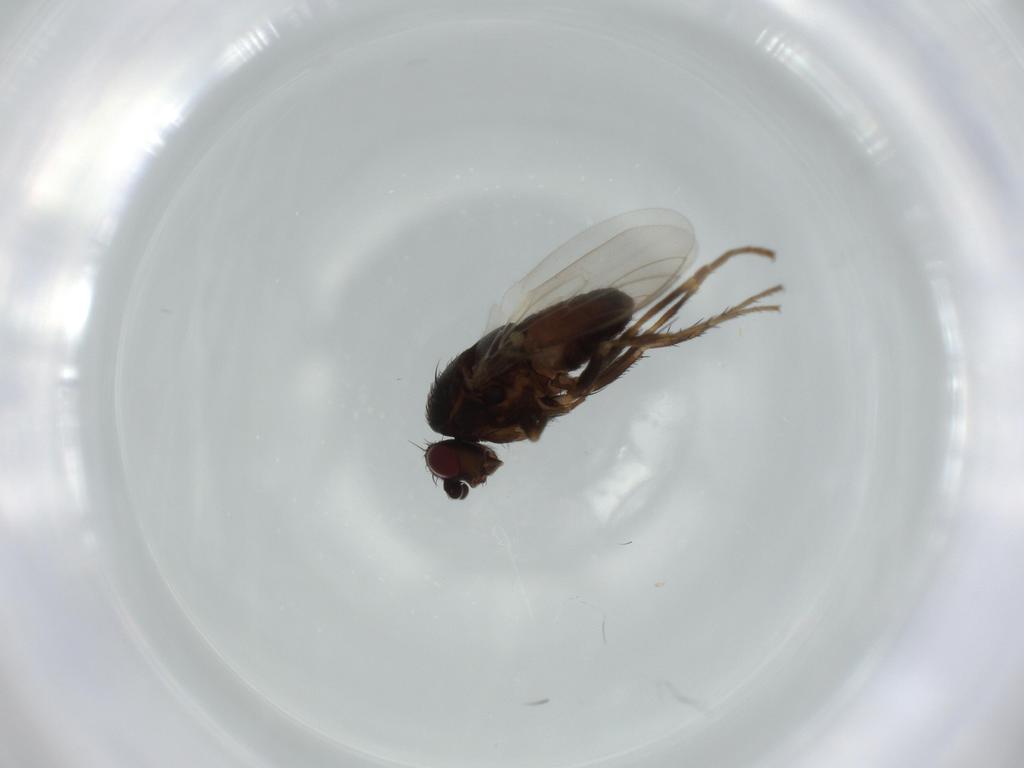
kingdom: Animalia
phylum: Arthropoda
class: Insecta
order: Diptera
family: Sphaeroceridae
